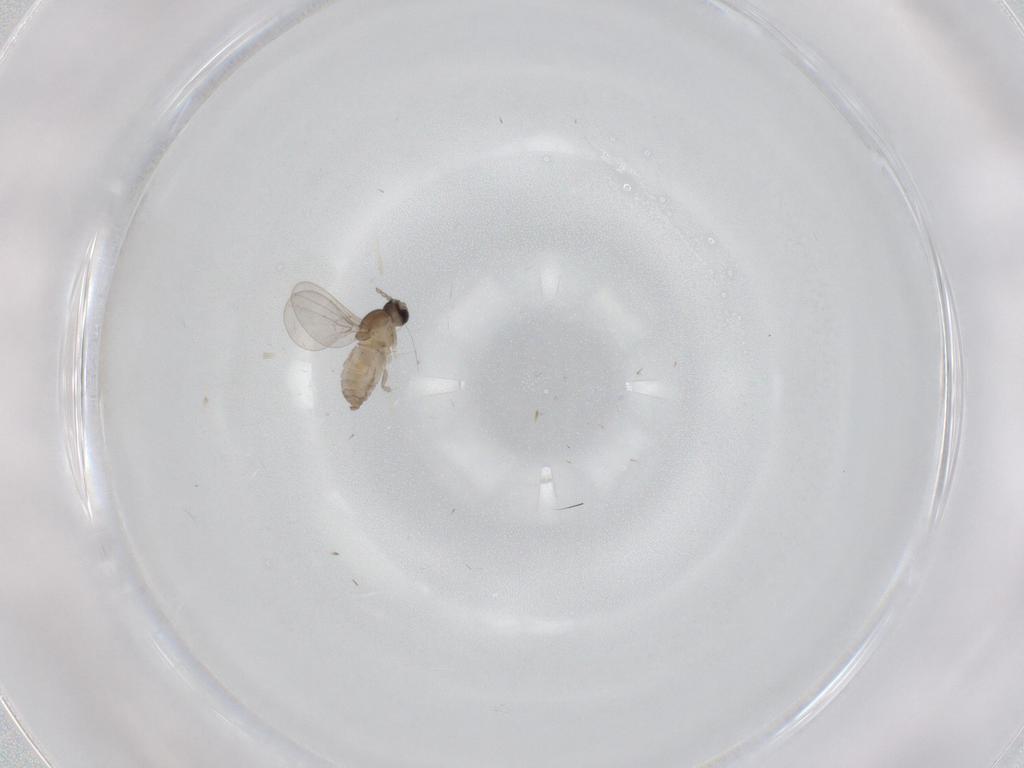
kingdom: Animalia
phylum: Arthropoda
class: Insecta
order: Diptera
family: Cecidomyiidae
